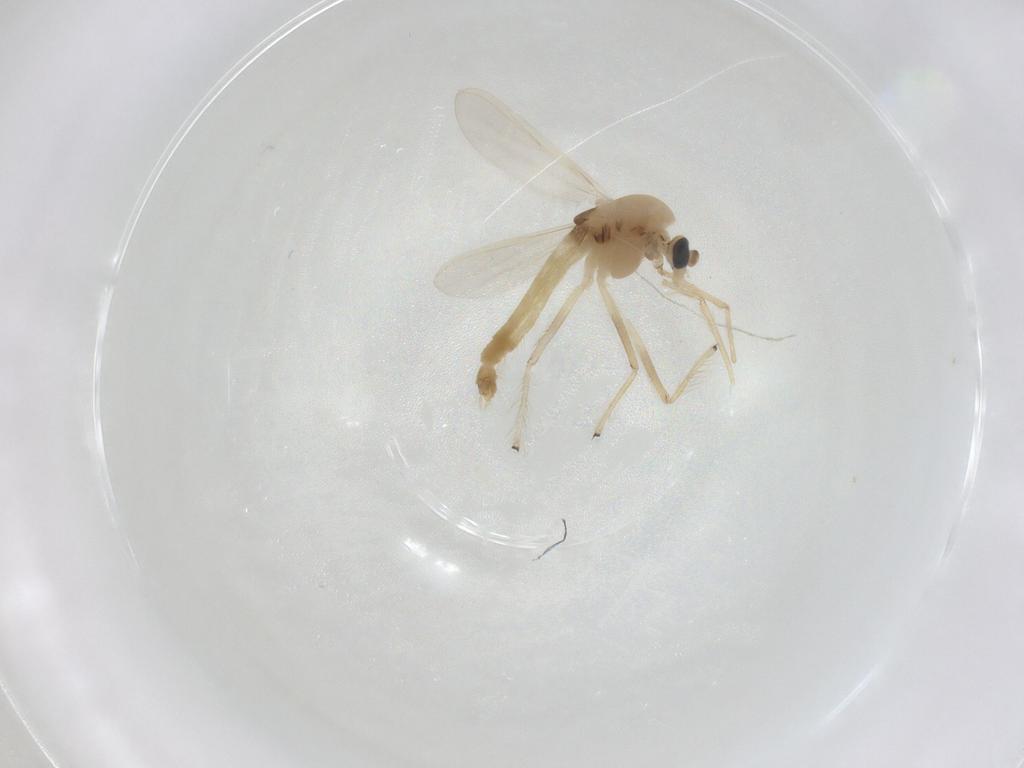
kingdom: Animalia
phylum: Arthropoda
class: Insecta
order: Diptera
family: Chironomidae
